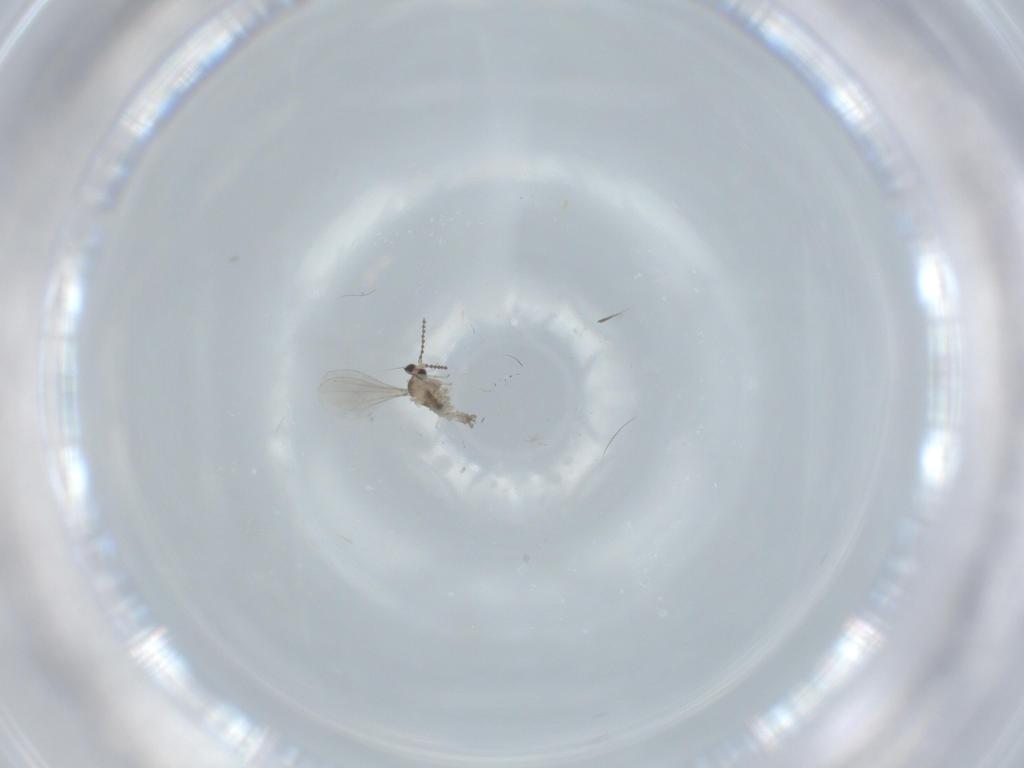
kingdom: Animalia
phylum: Arthropoda
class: Insecta
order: Diptera
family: Cecidomyiidae
